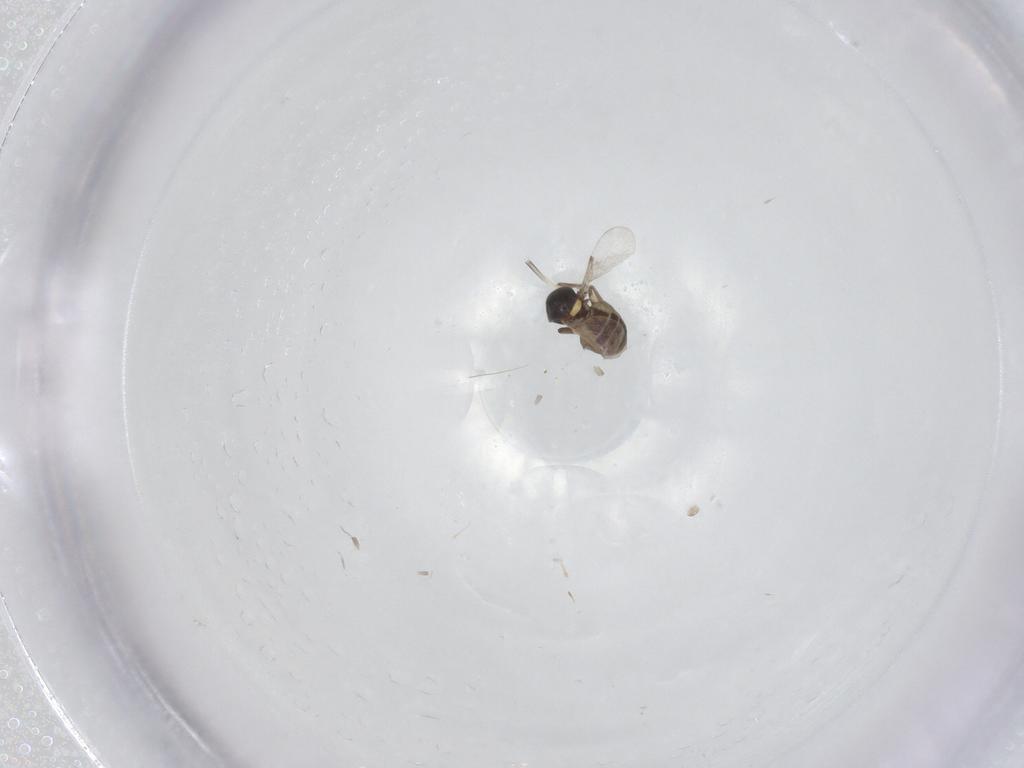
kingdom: Animalia
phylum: Arthropoda
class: Insecta
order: Diptera
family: Ceratopogonidae
